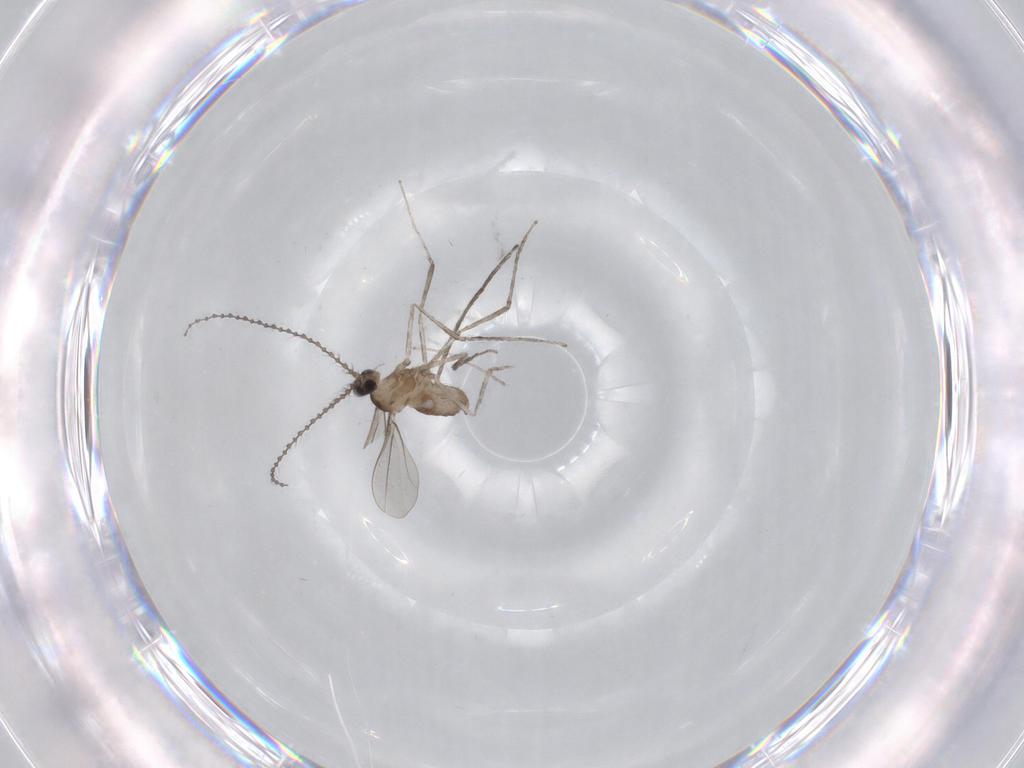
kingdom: Animalia
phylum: Arthropoda
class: Insecta
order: Diptera
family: Cecidomyiidae
